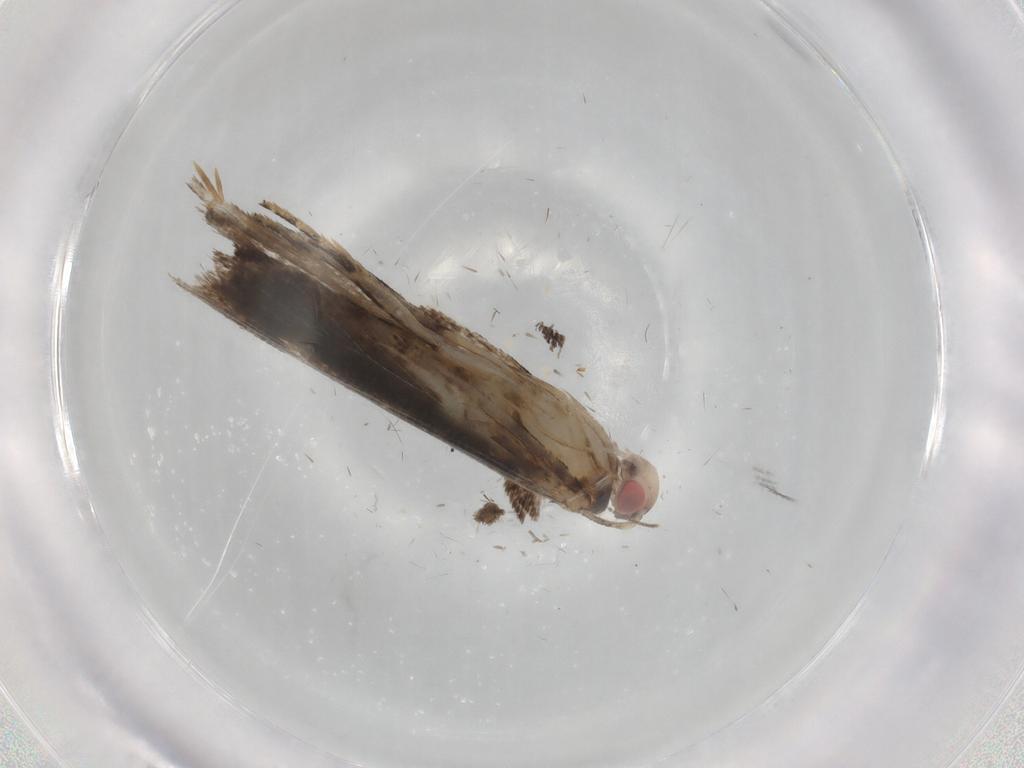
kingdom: Animalia
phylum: Arthropoda
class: Insecta
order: Lepidoptera
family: Gelechiidae
